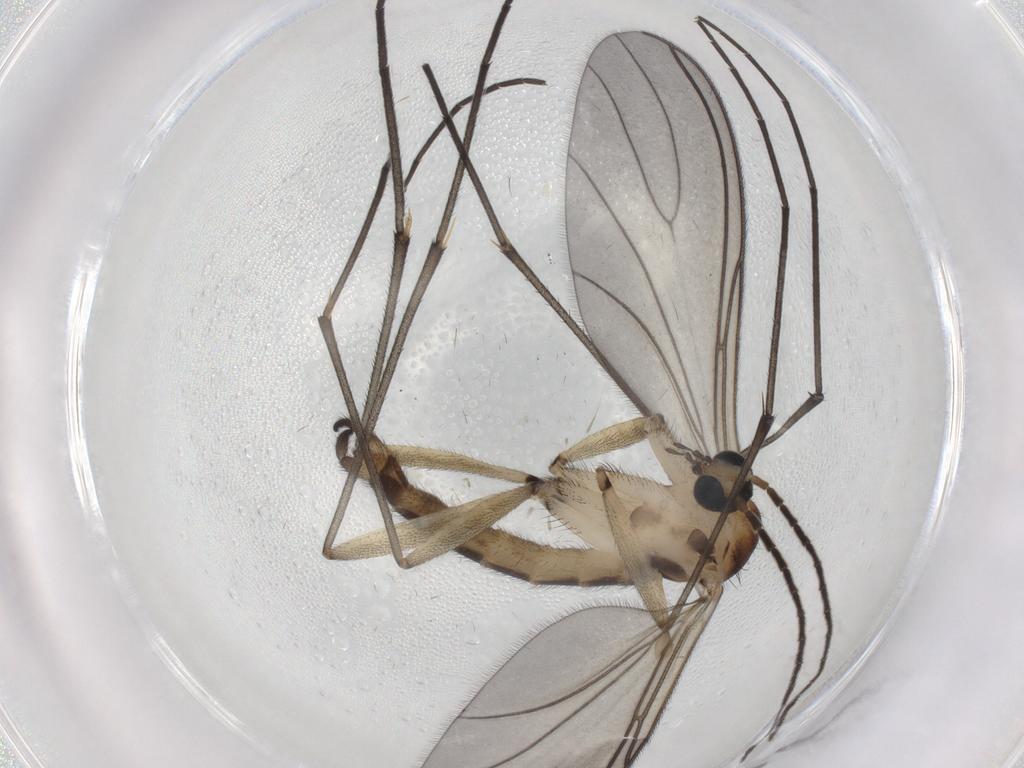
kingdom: Animalia
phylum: Arthropoda
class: Insecta
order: Diptera
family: Sciaridae
